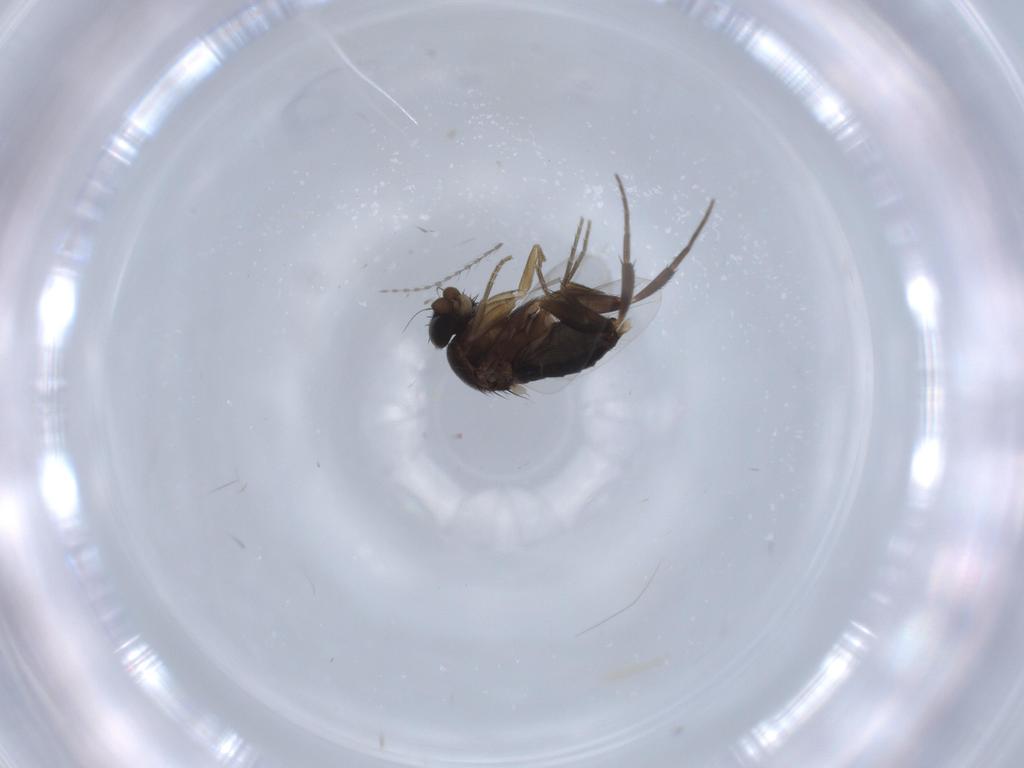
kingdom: Animalia
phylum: Arthropoda
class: Insecta
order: Diptera
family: Phoridae
